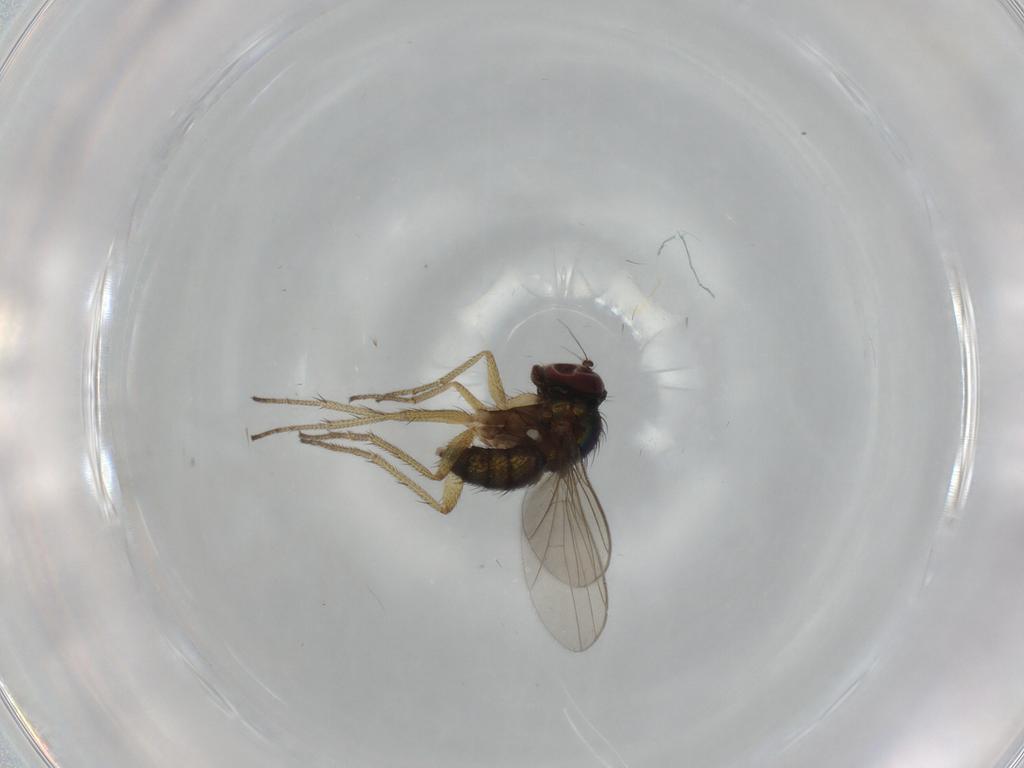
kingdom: Animalia
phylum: Arthropoda
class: Insecta
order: Diptera
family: Dolichopodidae
